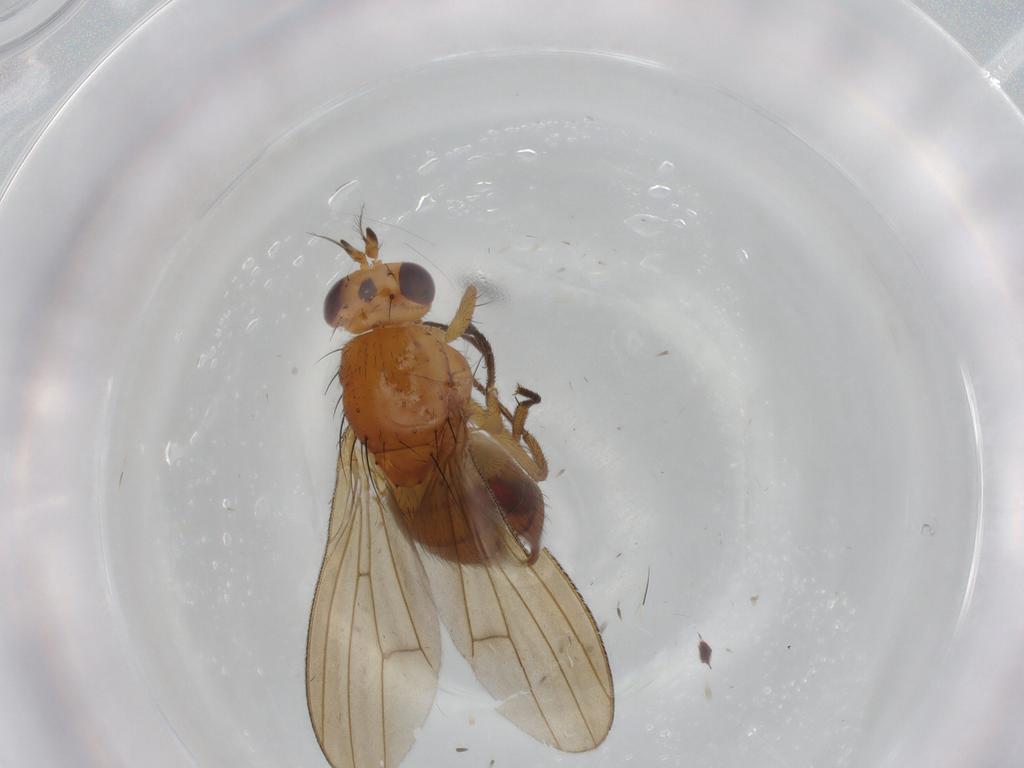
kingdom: Animalia
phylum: Arthropoda
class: Insecta
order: Diptera
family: Lauxaniidae
